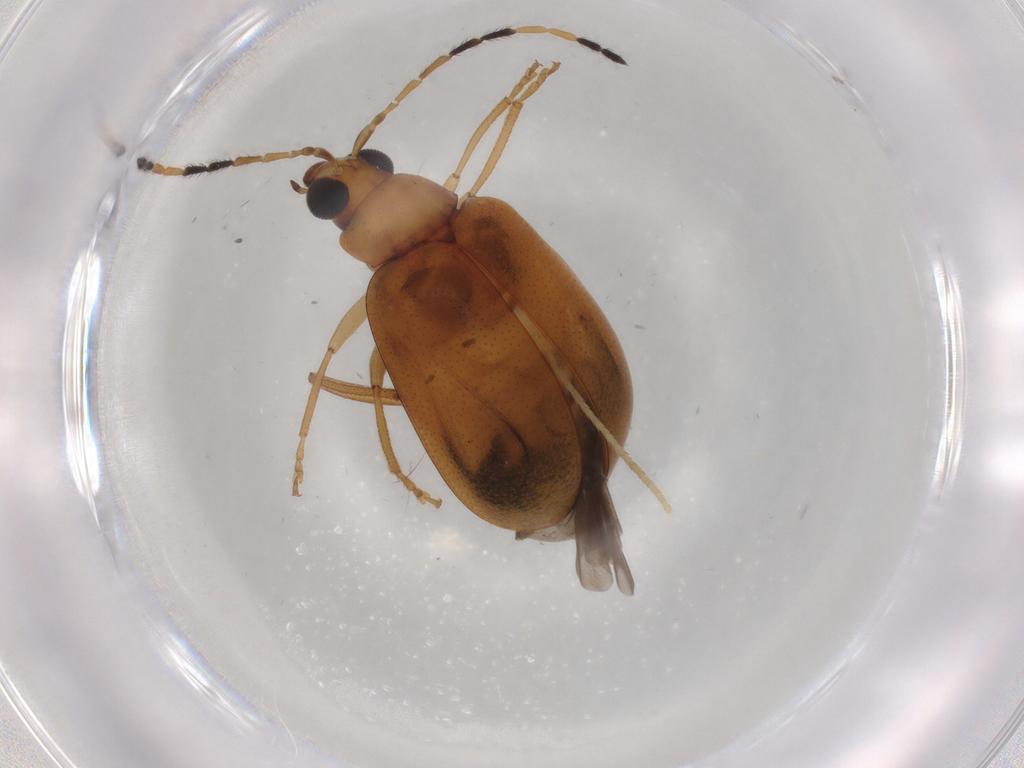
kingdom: Animalia
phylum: Arthropoda
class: Insecta
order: Coleoptera
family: Chrysomelidae
